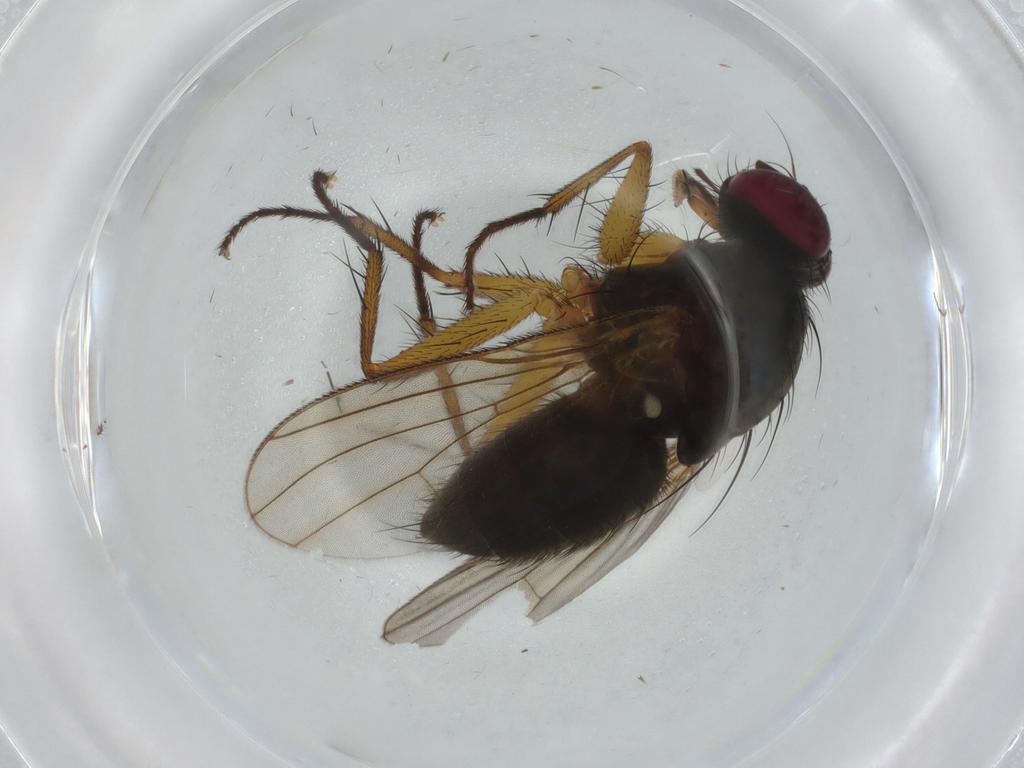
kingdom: Animalia
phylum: Arthropoda
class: Insecta
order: Diptera
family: Muscidae
